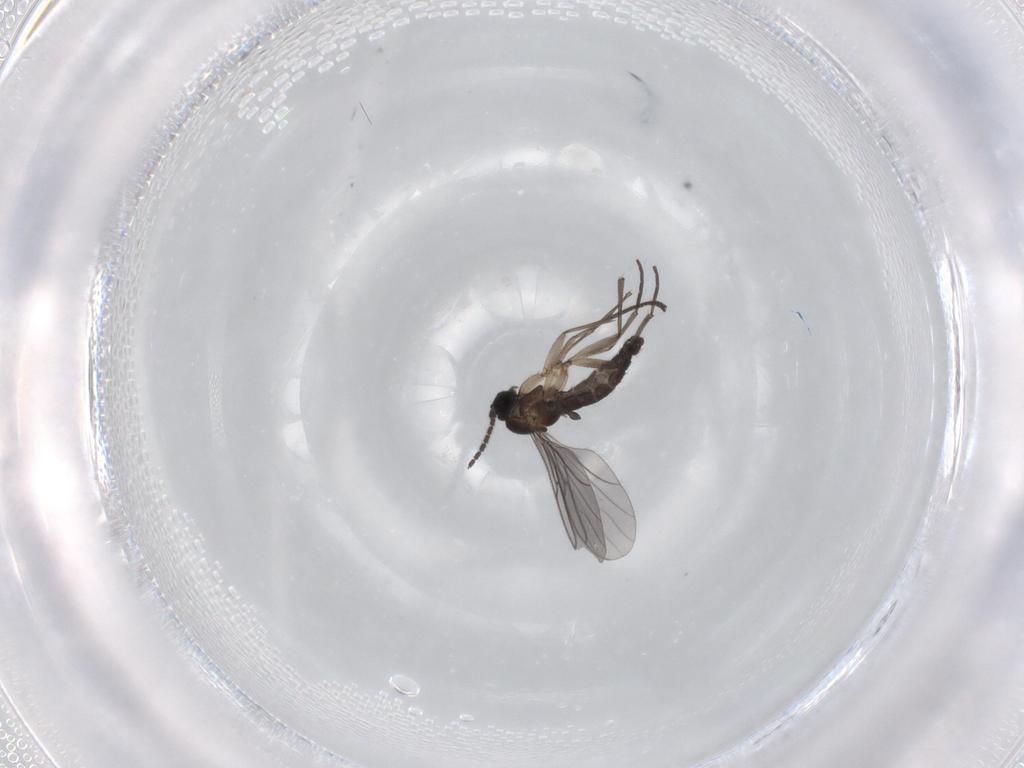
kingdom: Animalia
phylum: Arthropoda
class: Insecta
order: Diptera
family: Sciaridae
